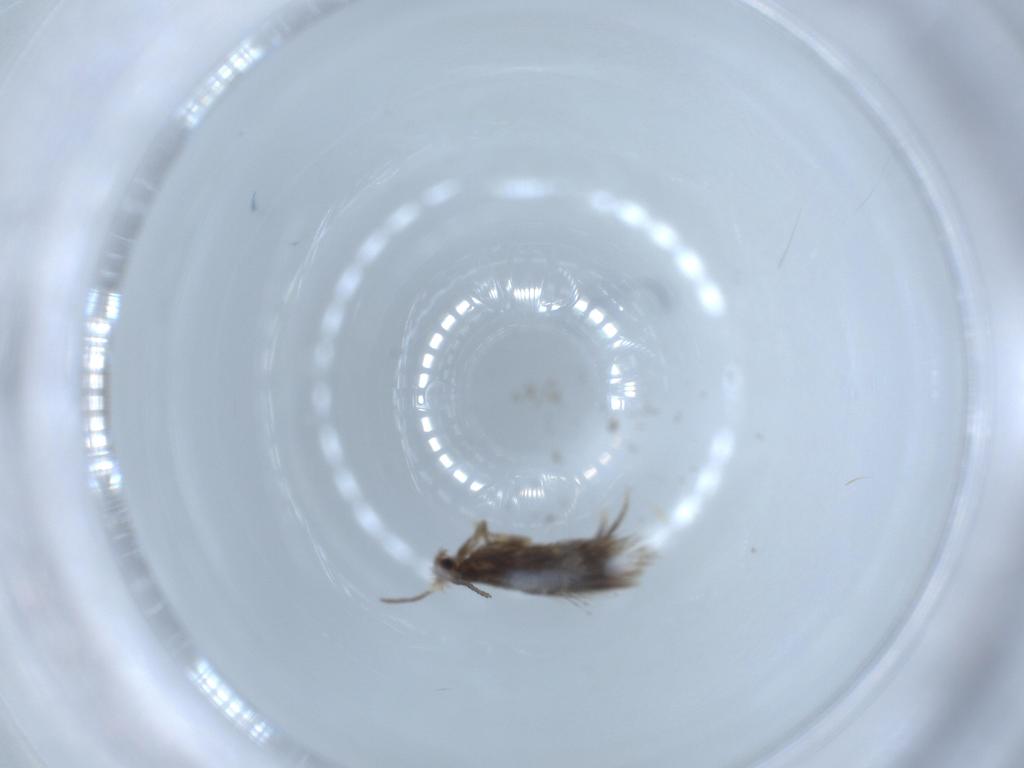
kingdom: Animalia
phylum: Arthropoda
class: Insecta
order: Lepidoptera
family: Nepticulidae
